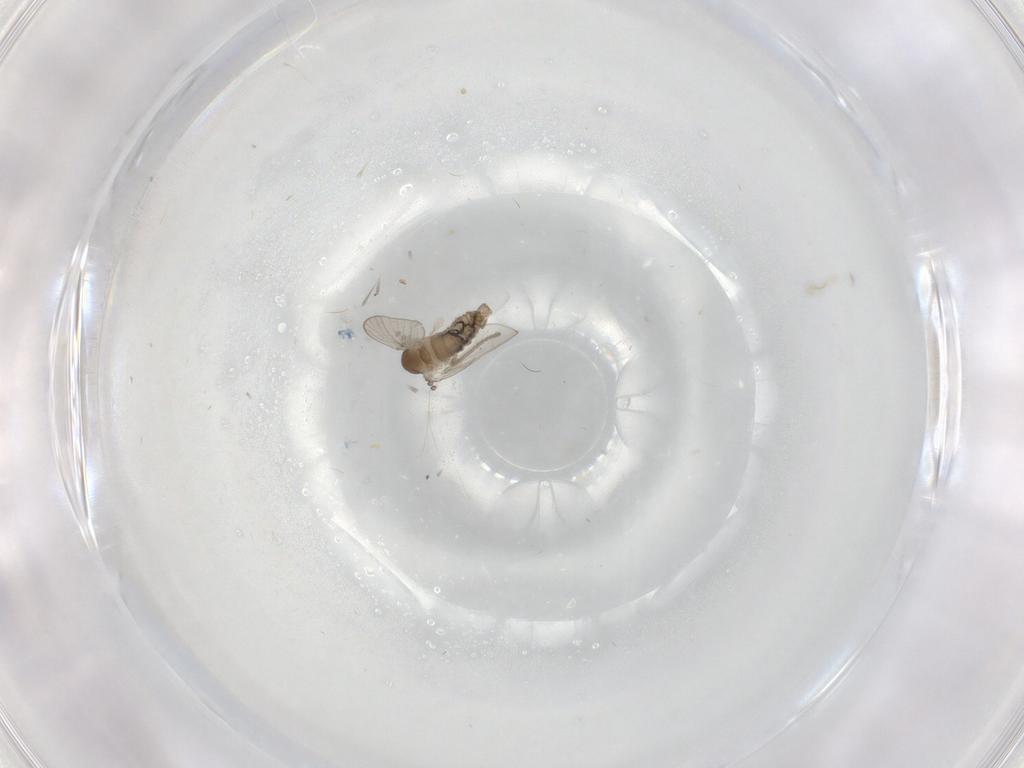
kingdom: Animalia
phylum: Arthropoda
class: Insecta
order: Diptera
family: Psychodidae
